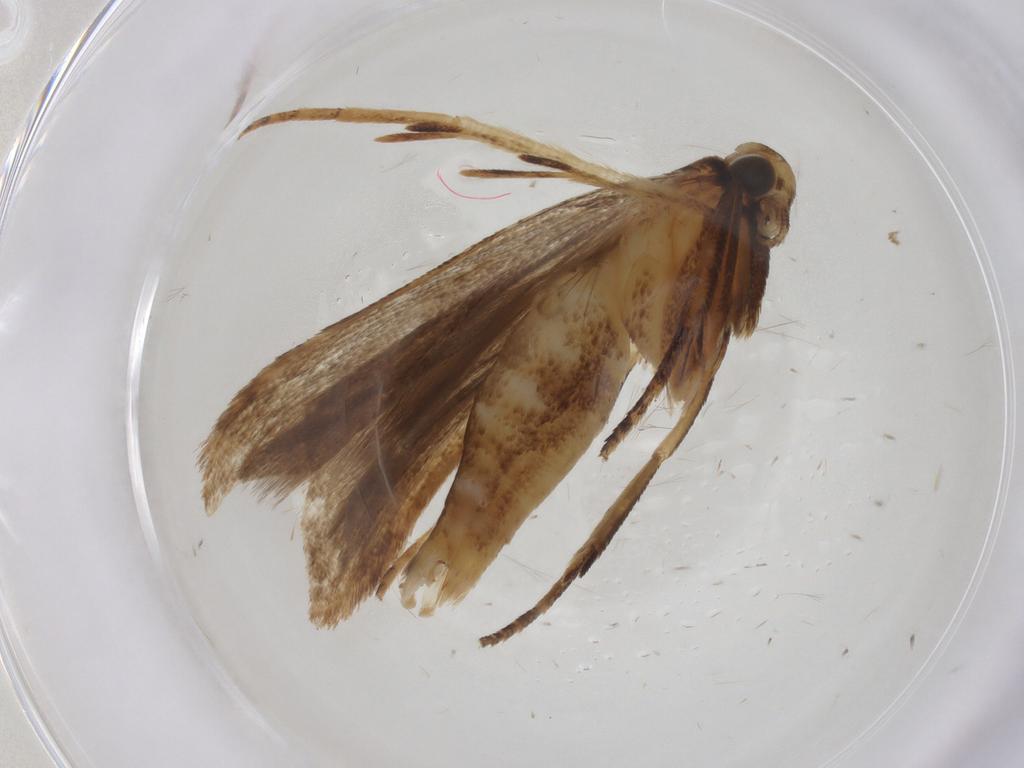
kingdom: Animalia
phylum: Arthropoda
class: Insecta
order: Lepidoptera
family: Gelechiidae
